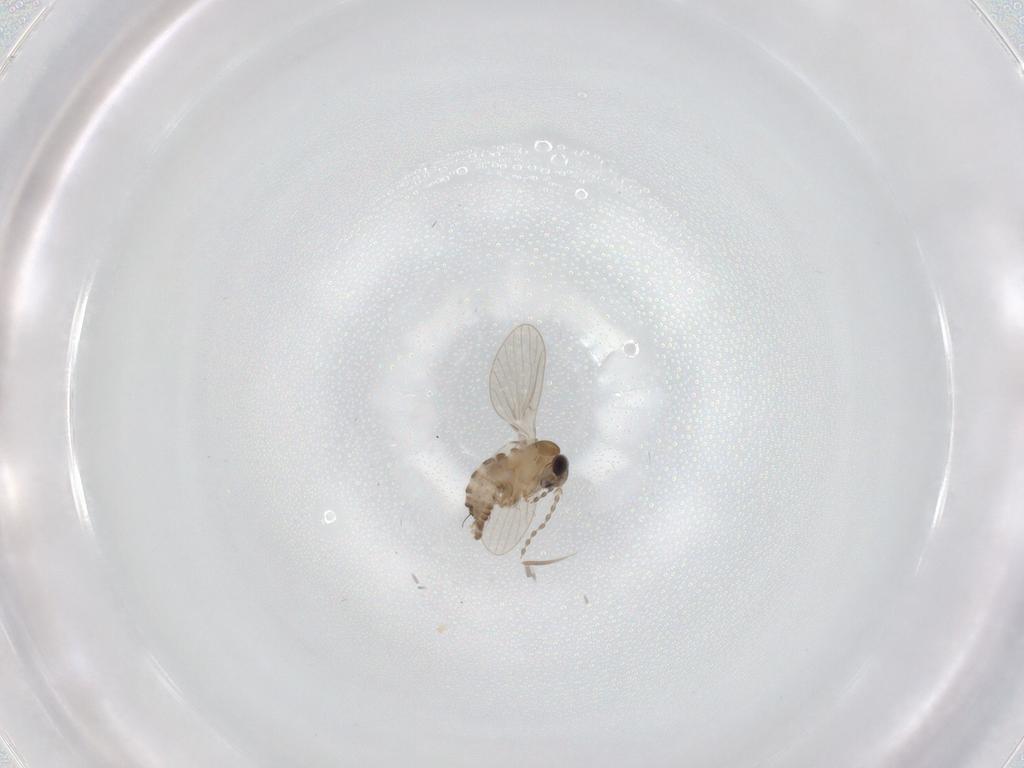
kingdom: Animalia
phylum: Arthropoda
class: Insecta
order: Diptera
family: Psychodidae
